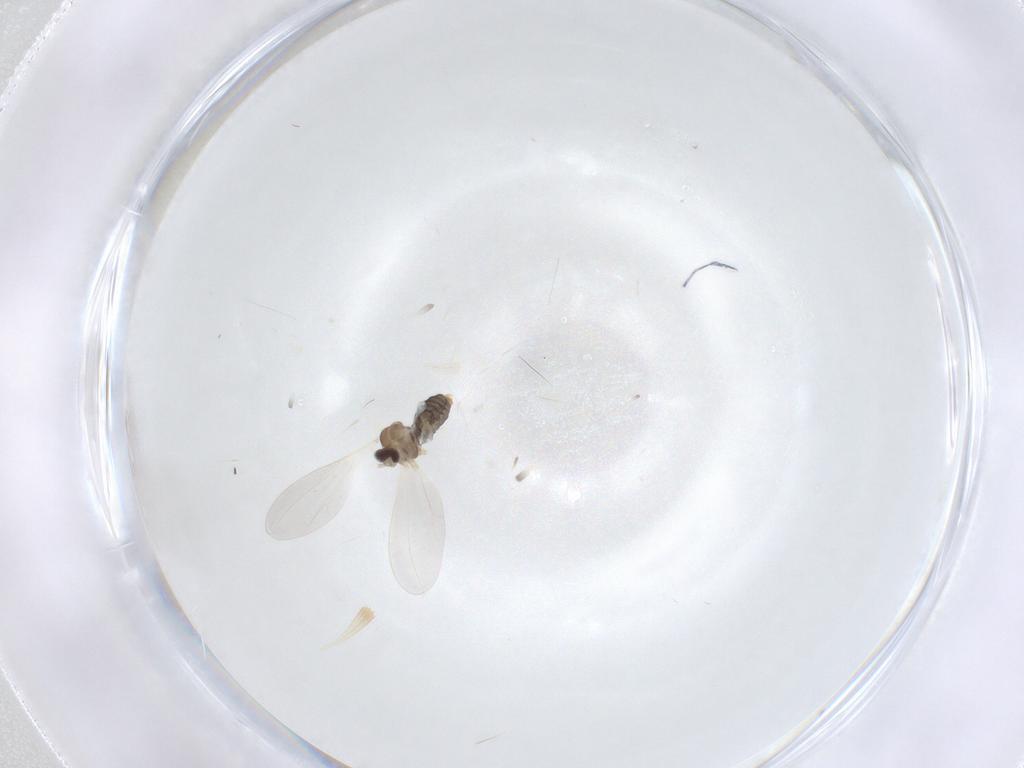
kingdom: Animalia
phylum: Arthropoda
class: Insecta
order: Diptera
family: Cecidomyiidae
